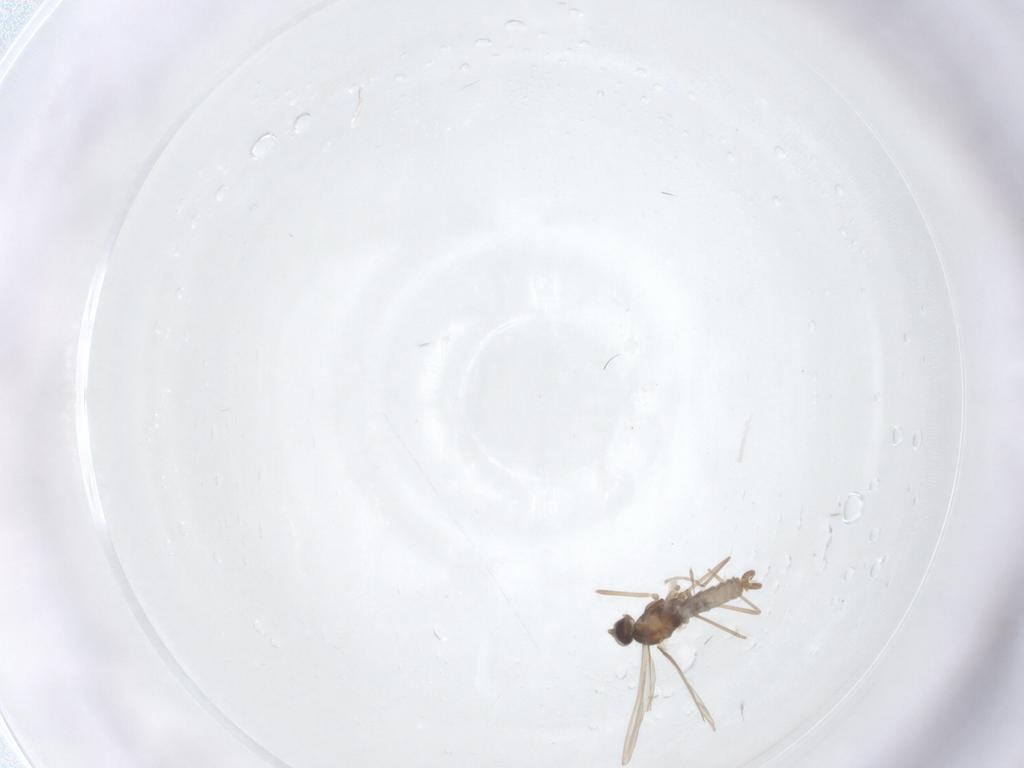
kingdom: Animalia
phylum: Arthropoda
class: Insecta
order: Diptera
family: Cecidomyiidae
